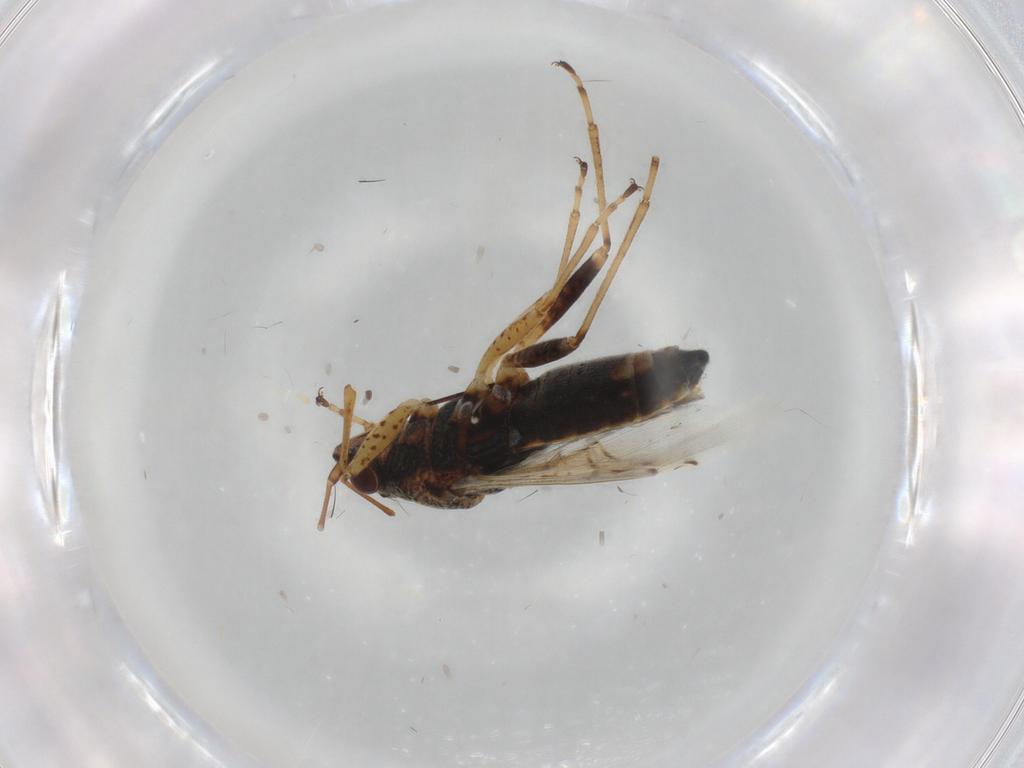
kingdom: Animalia
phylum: Arthropoda
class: Insecta
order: Hemiptera
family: Lygaeidae
